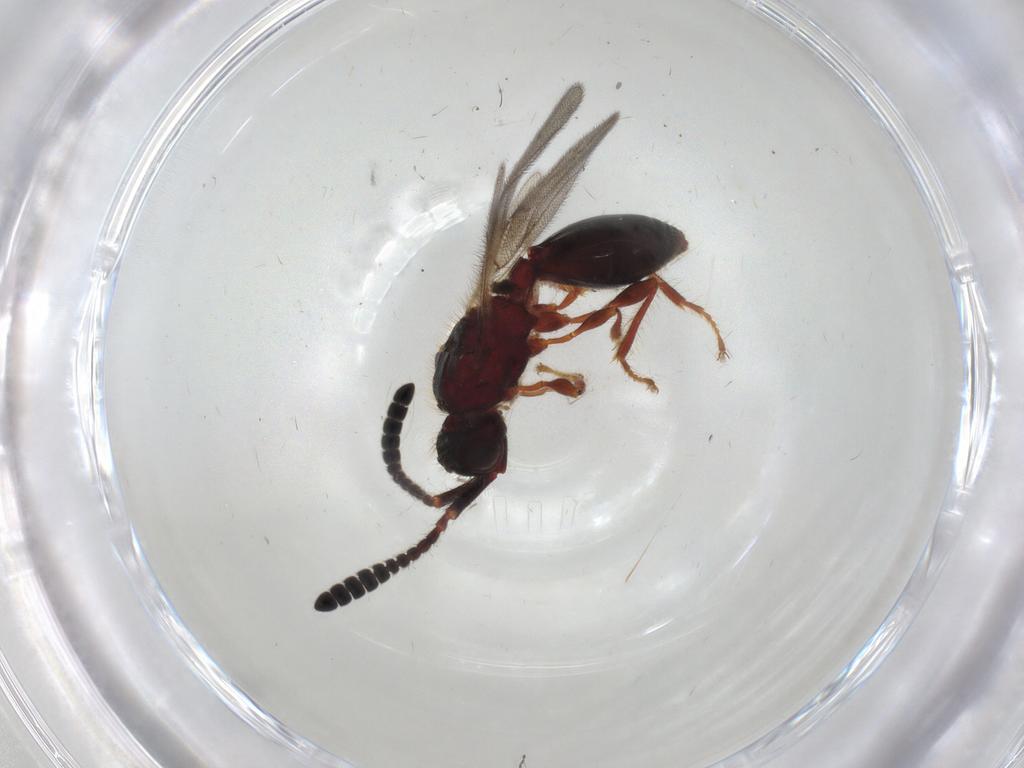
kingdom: Animalia
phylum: Arthropoda
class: Insecta
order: Hymenoptera
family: Diapriidae
